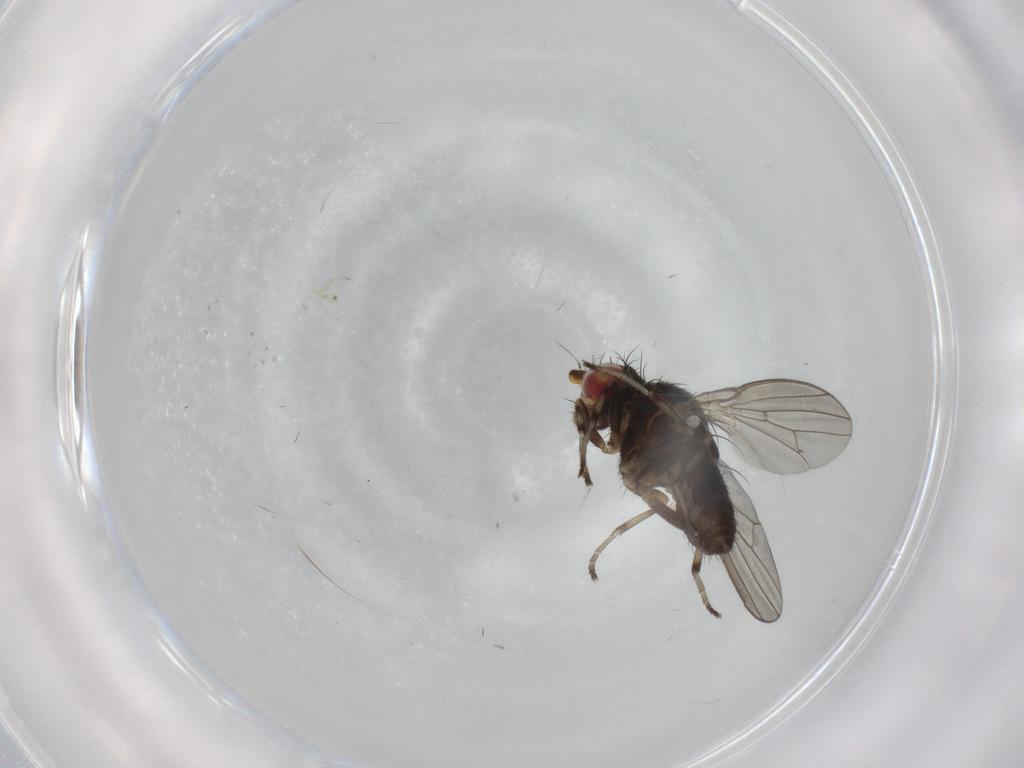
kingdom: Animalia
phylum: Arthropoda
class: Insecta
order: Diptera
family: Heleomyzidae
